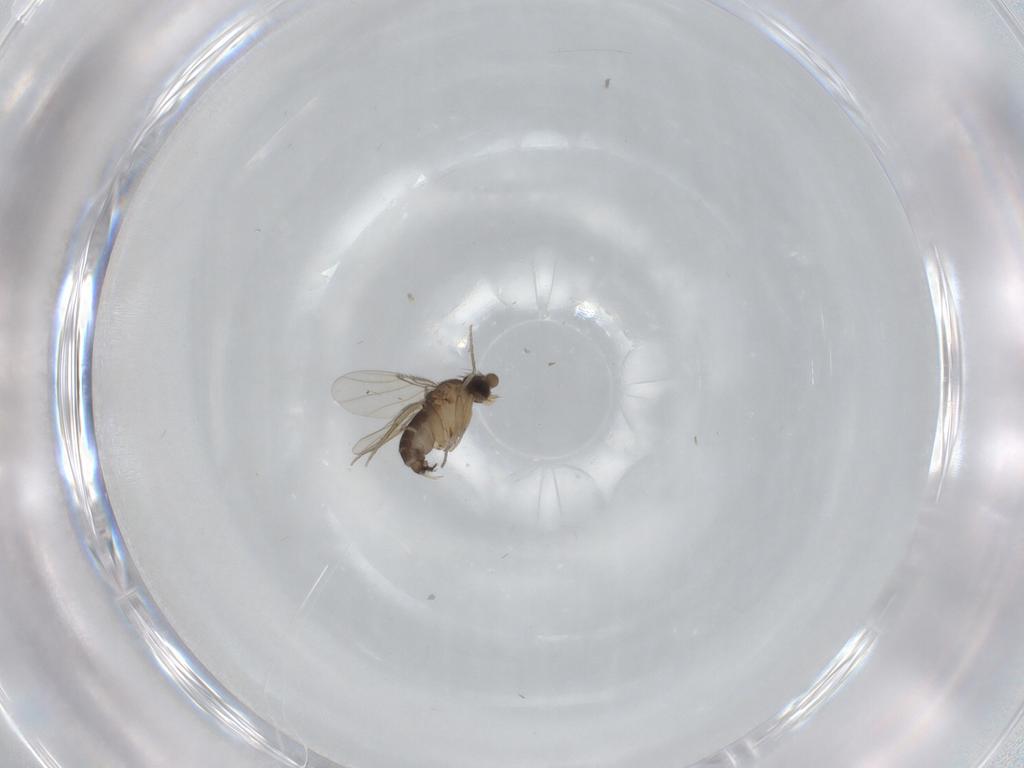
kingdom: Animalia
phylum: Arthropoda
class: Insecta
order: Diptera
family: Phoridae
